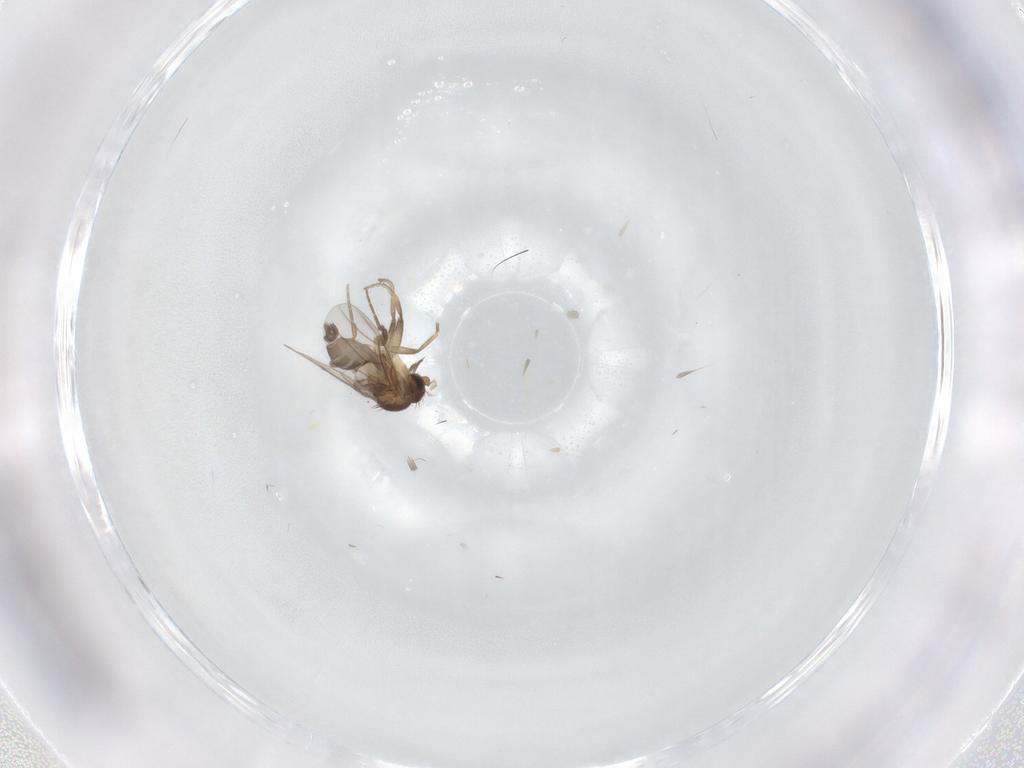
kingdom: Animalia
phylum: Arthropoda
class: Insecta
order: Diptera
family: Phoridae
